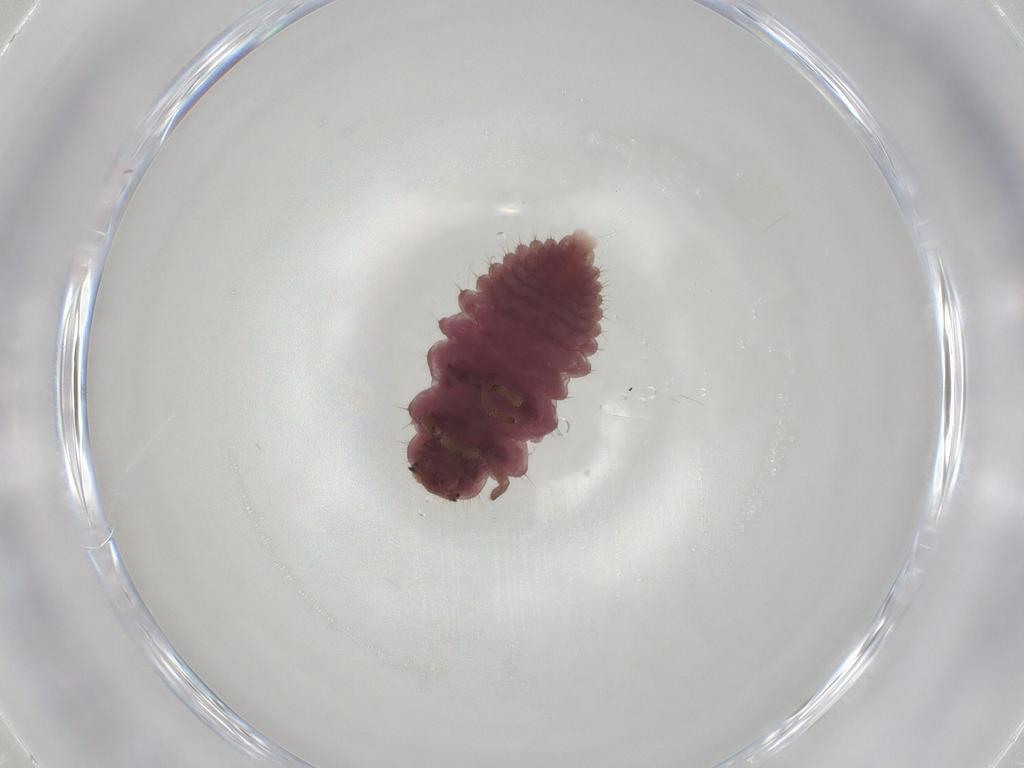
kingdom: Animalia
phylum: Arthropoda
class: Insecta
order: Coleoptera
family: Coccinellidae
